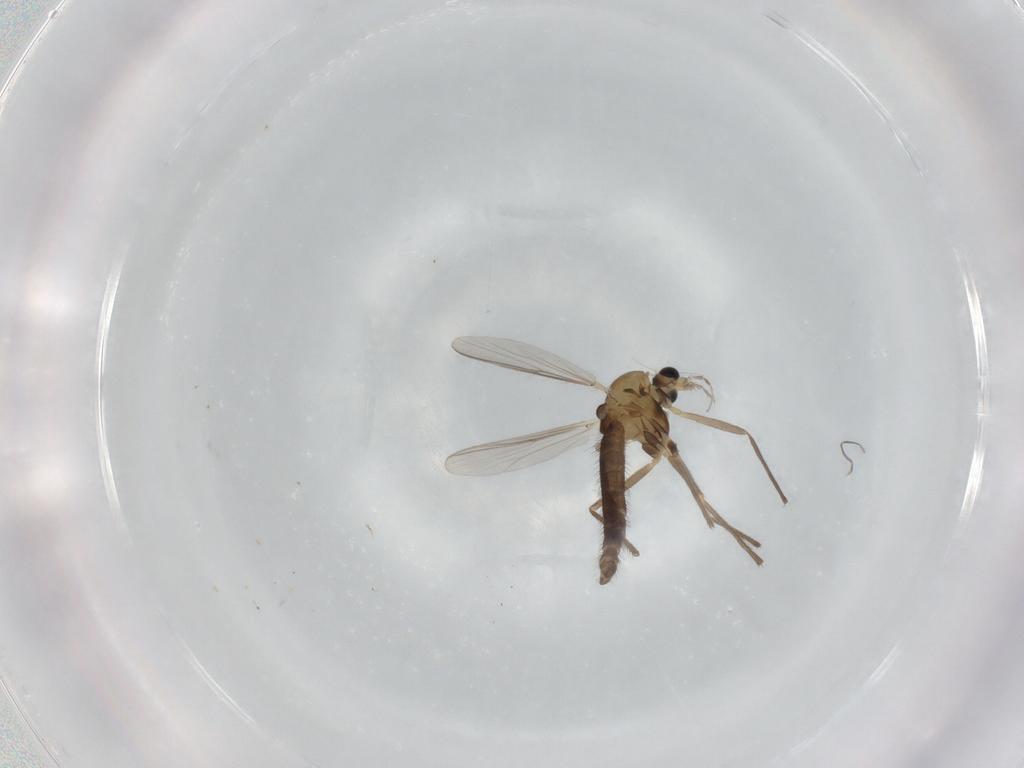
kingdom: Animalia
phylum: Arthropoda
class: Insecta
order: Diptera
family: Chironomidae
